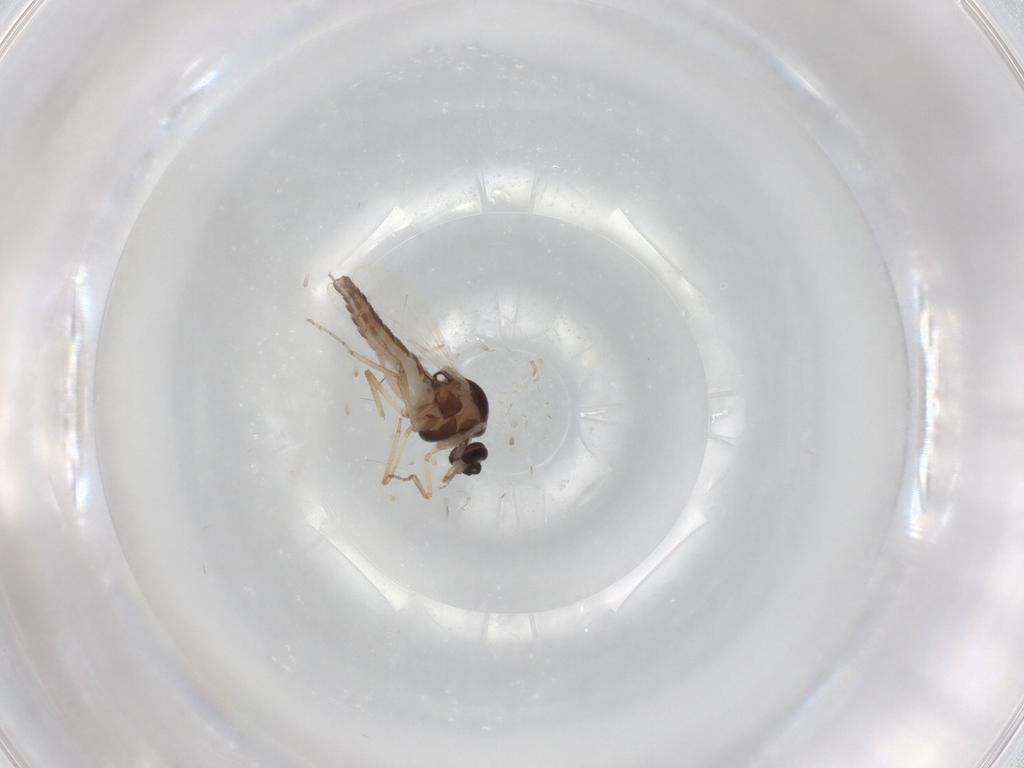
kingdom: Animalia
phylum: Arthropoda
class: Insecta
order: Diptera
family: Ceratopogonidae
